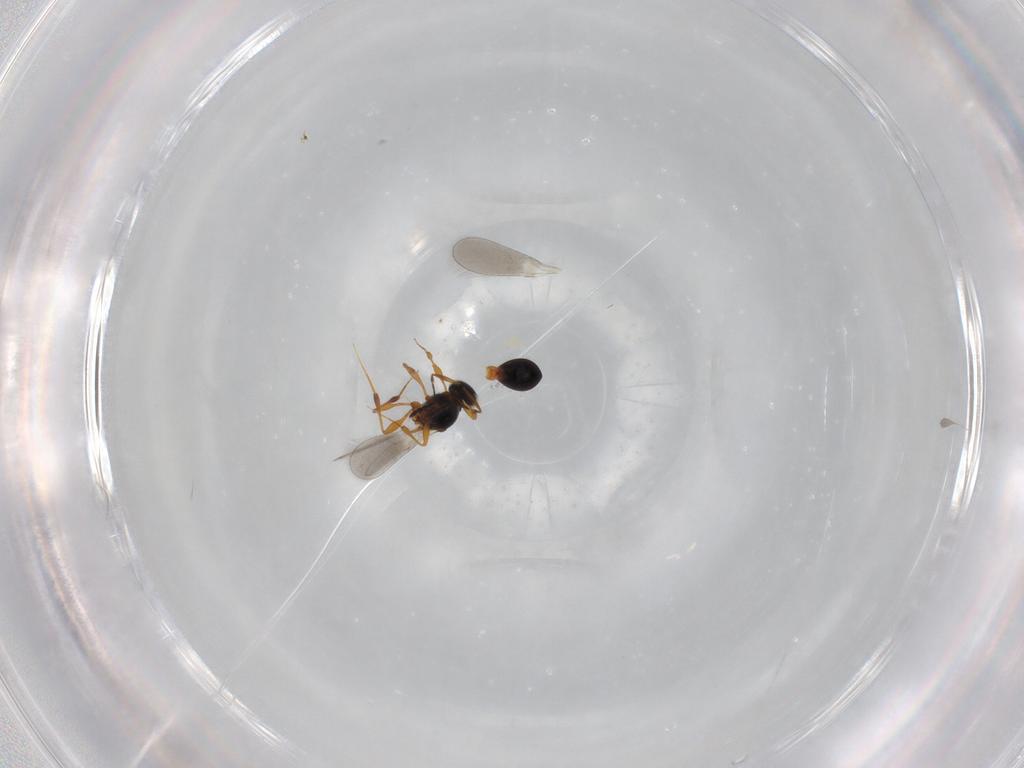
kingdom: Animalia
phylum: Arthropoda
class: Insecta
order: Hymenoptera
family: Platygastridae
